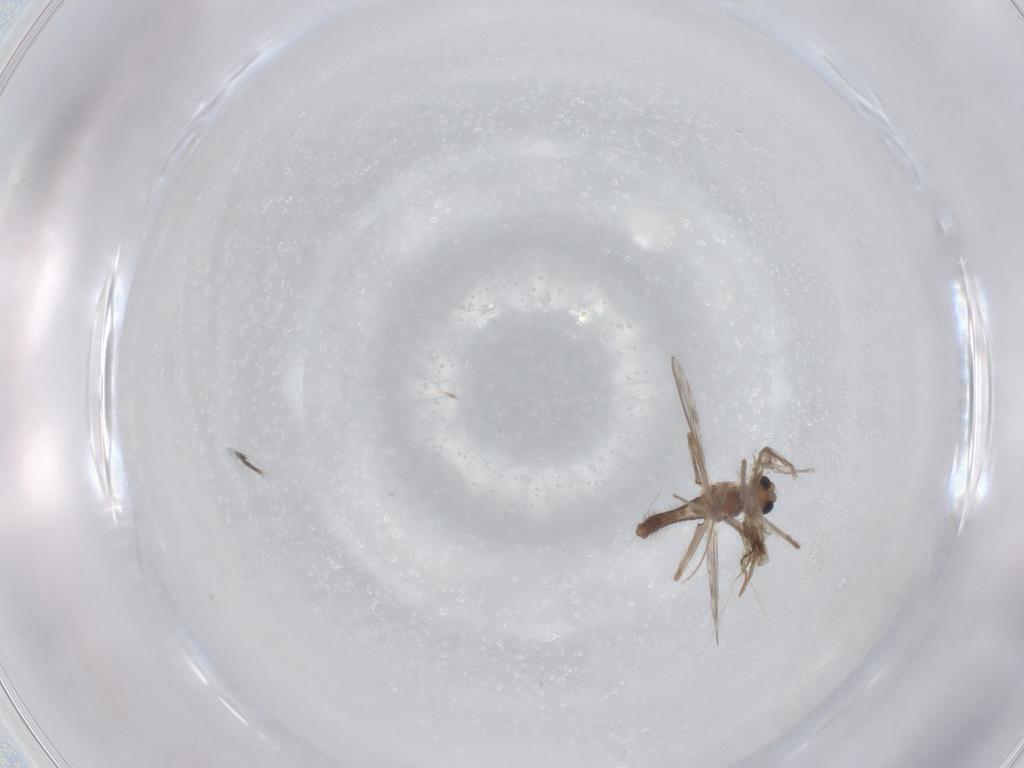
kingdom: Animalia
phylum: Arthropoda
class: Insecta
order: Diptera
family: Chironomidae
